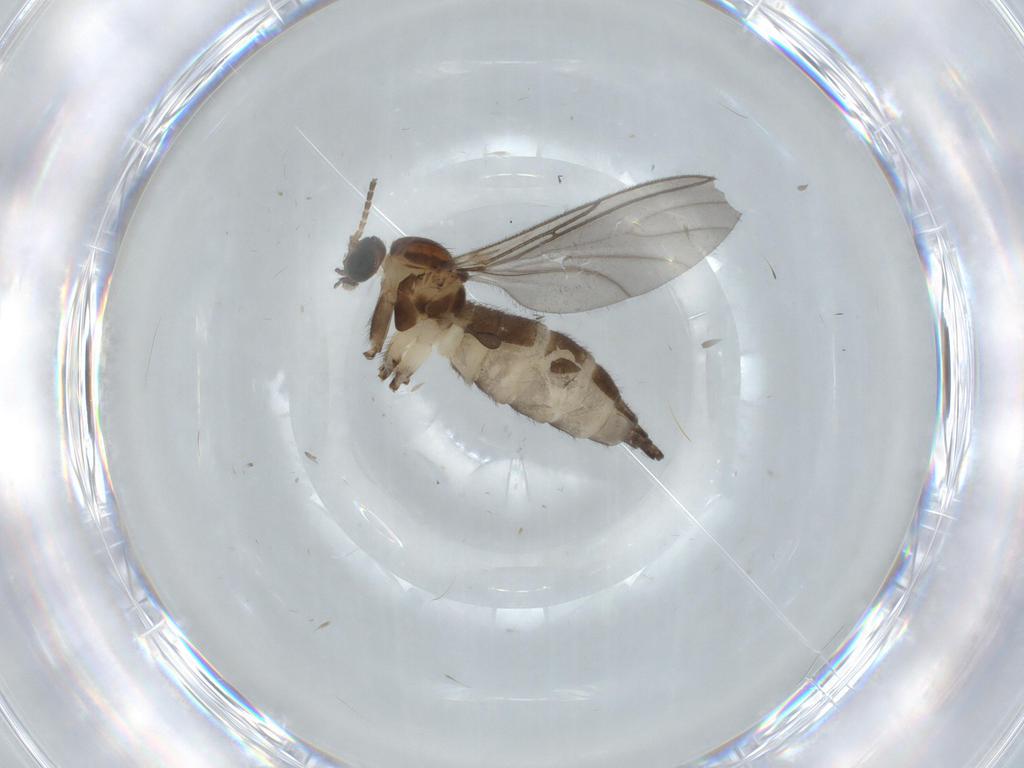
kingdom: Animalia
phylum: Arthropoda
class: Insecta
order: Diptera
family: Sciaridae
